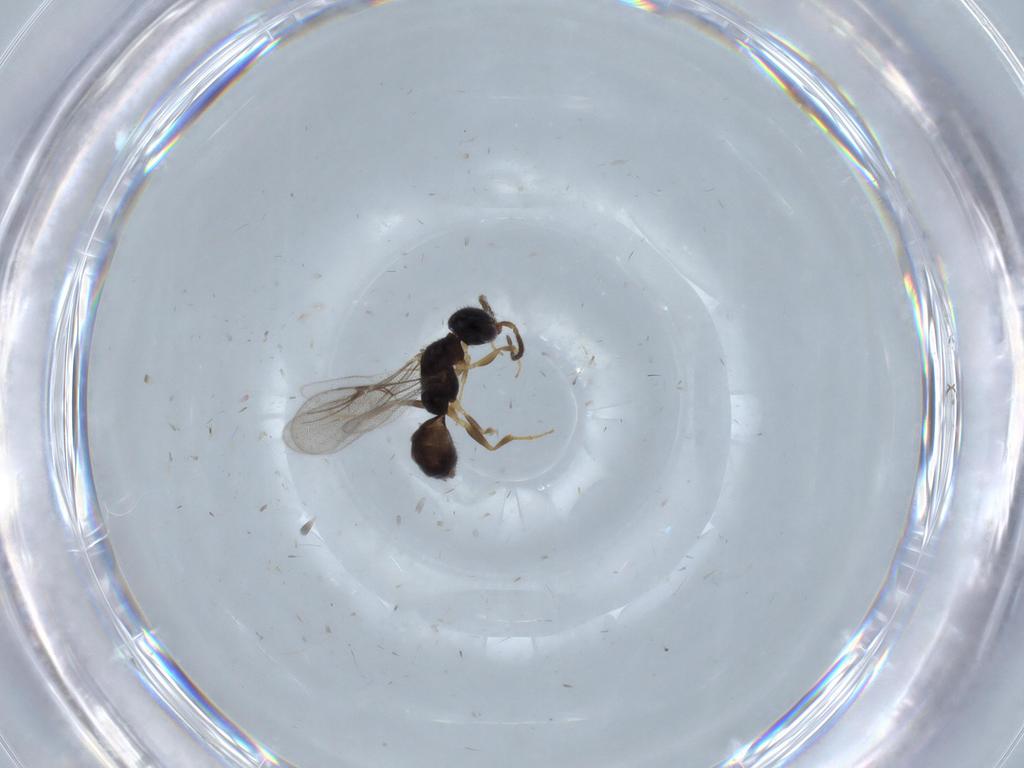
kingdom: Animalia
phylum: Arthropoda
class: Insecta
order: Hymenoptera
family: Bethylidae
